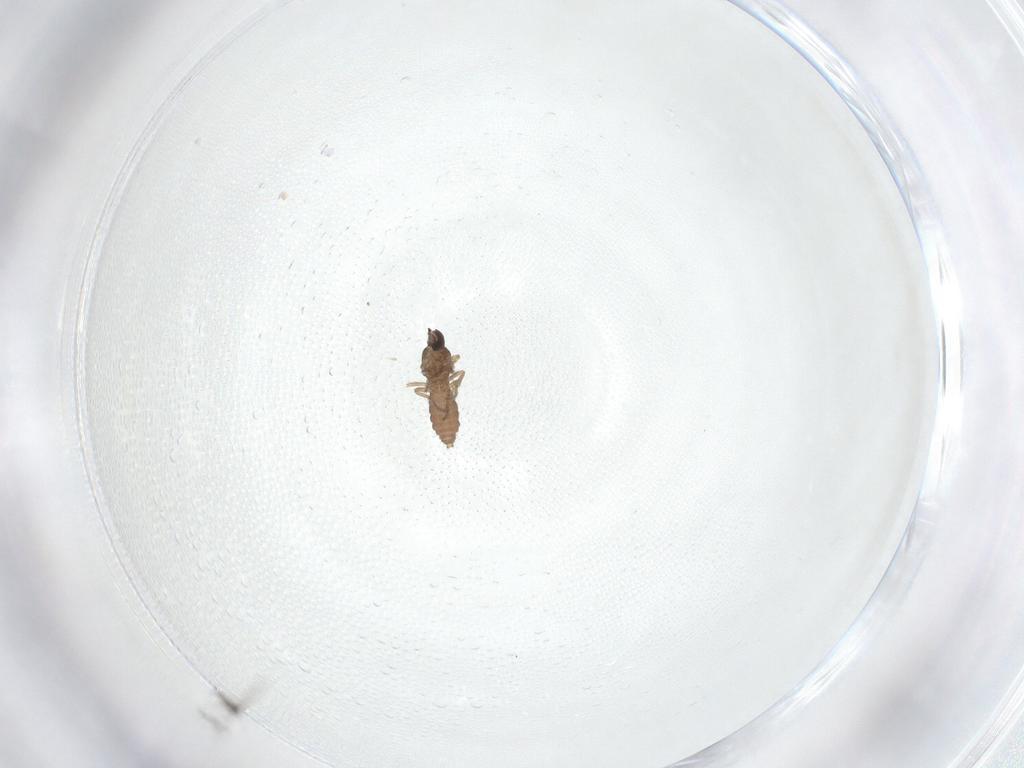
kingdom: Animalia
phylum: Arthropoda
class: Insecta
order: Diptera
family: Ceratopogonidae
